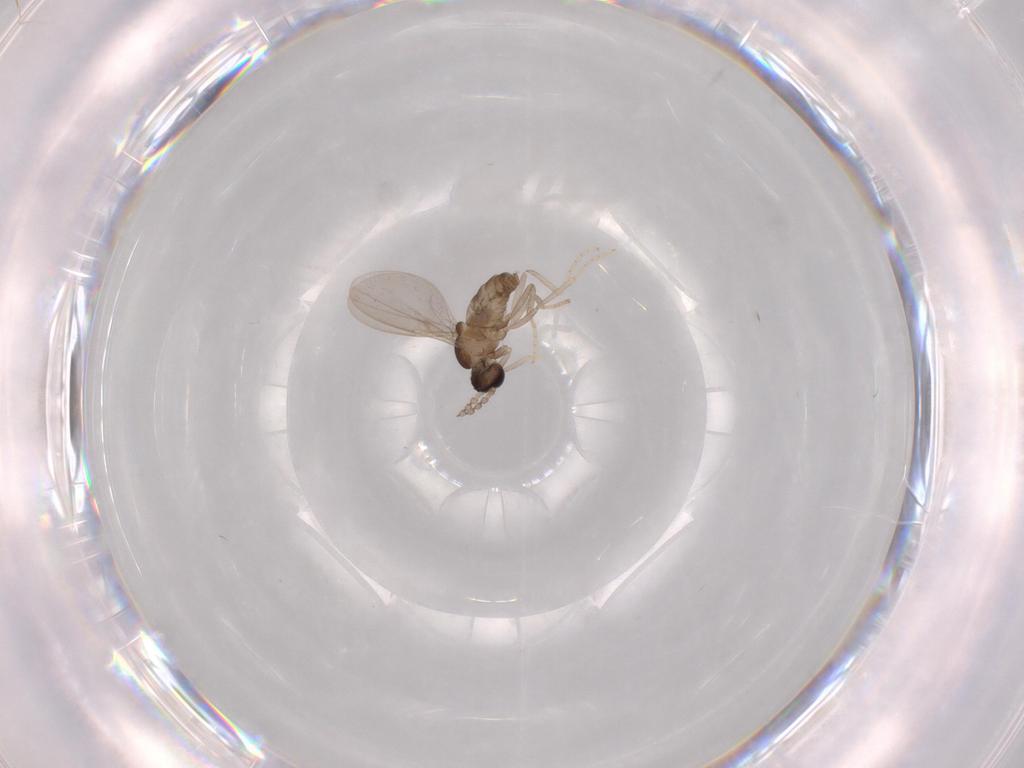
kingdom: Animalia
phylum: Arthropoda
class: Insecta
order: Diptera
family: Cecidomyiidae
